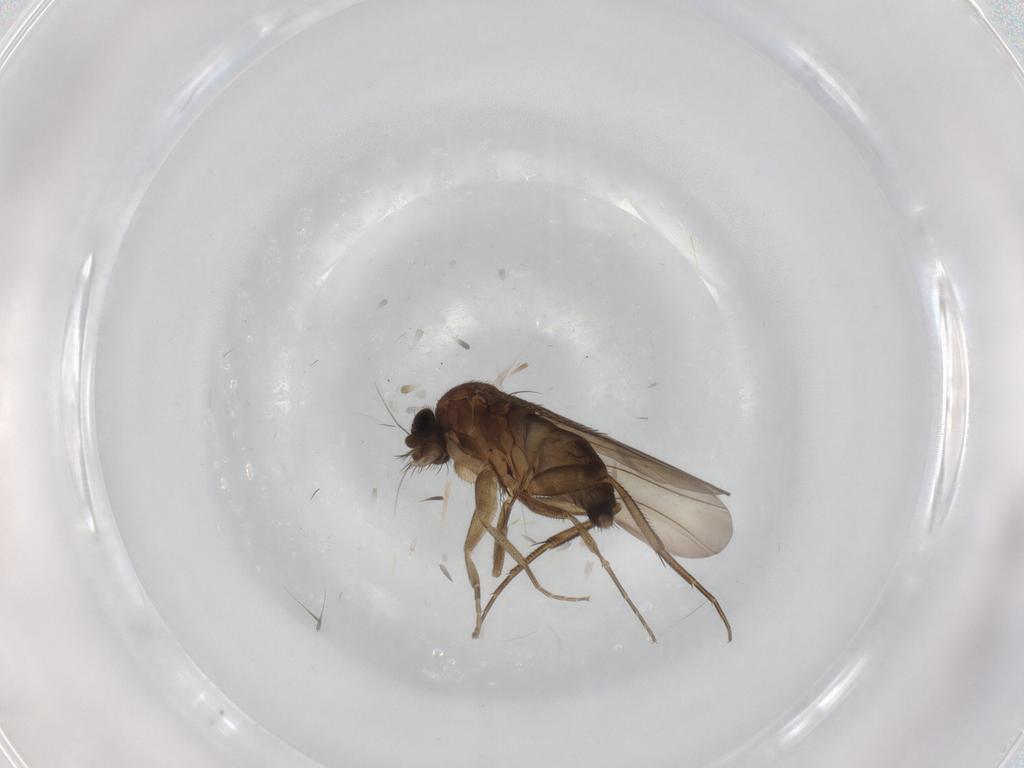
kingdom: Animalia
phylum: Arthropoda
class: Insecta
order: Diptera
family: Phoridae
